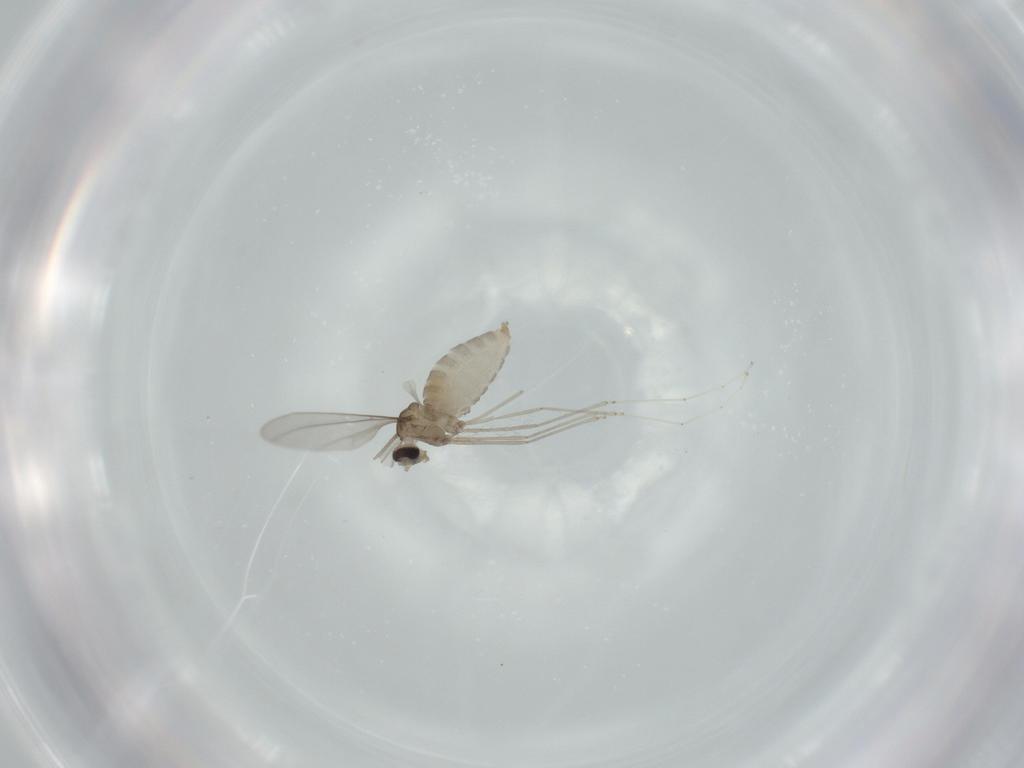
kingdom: Animalia
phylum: Arthropoda
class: Insecta
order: Diptera
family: Cecidomyiidae
